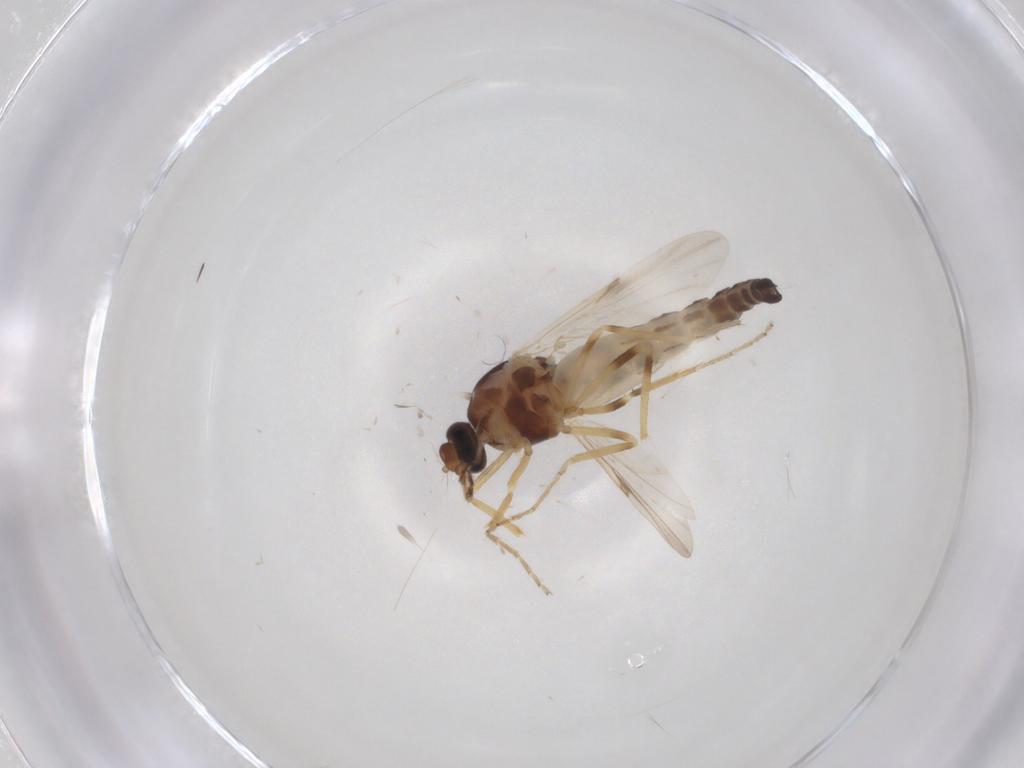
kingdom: Animalia
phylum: Arthropoda
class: Insecta
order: Diptera
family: Ceratopogonidae
